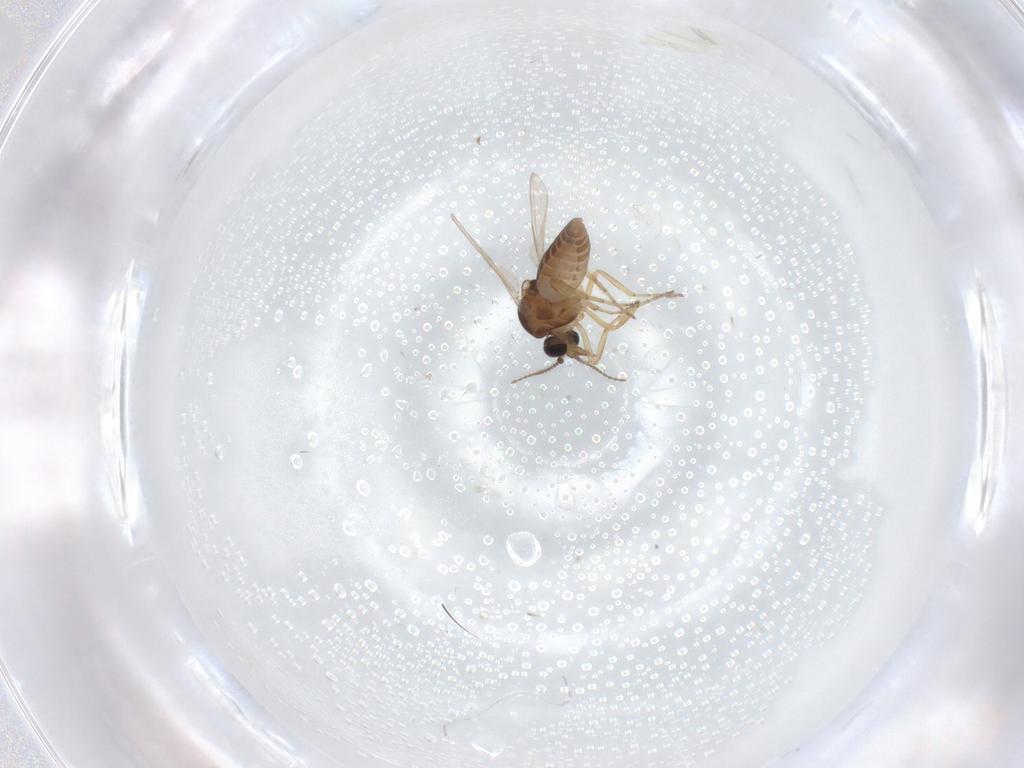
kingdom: Animalia
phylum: Arthropoda
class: Insecta
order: Diptera
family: Ceratopogonidae
